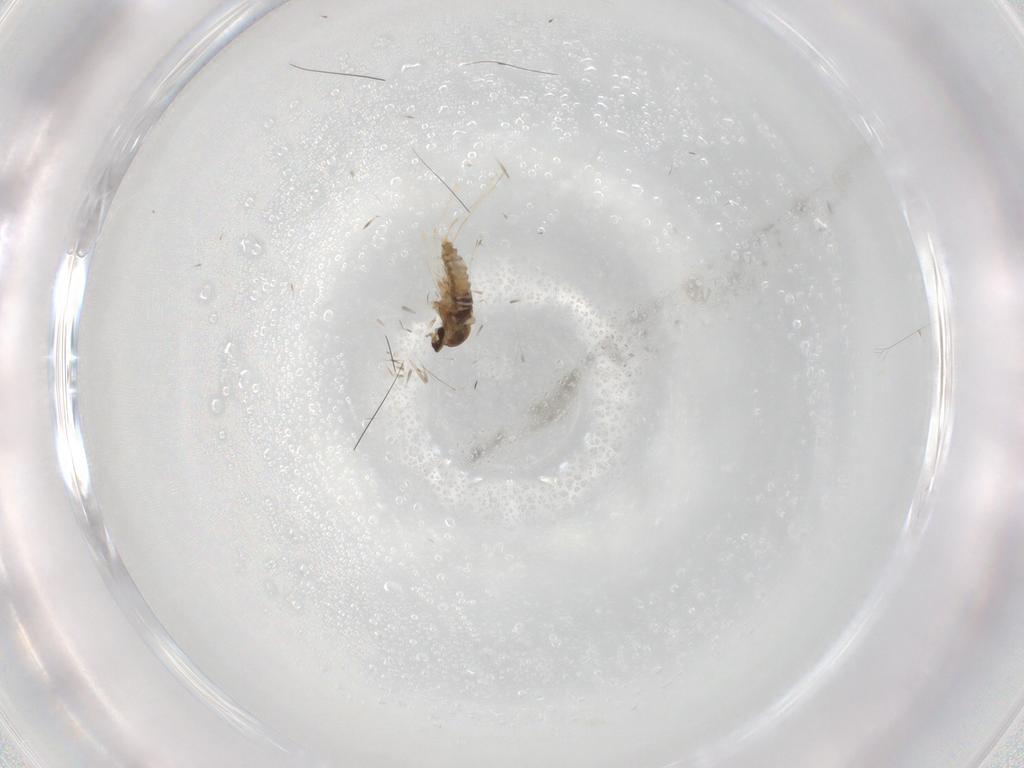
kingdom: Animalia
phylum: Arthropoda
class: Insecta
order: Diptera
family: Cecidomyiidae
